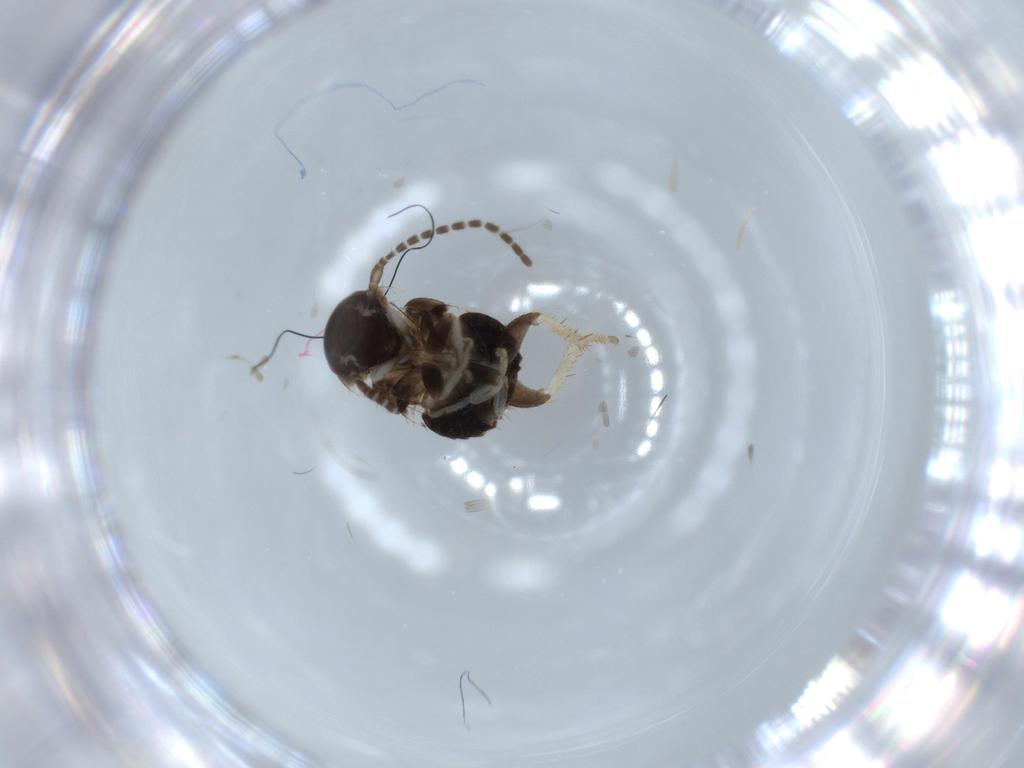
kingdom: Animalia
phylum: Arthropoda
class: Insecta
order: Blattodea
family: Ectobiidae
